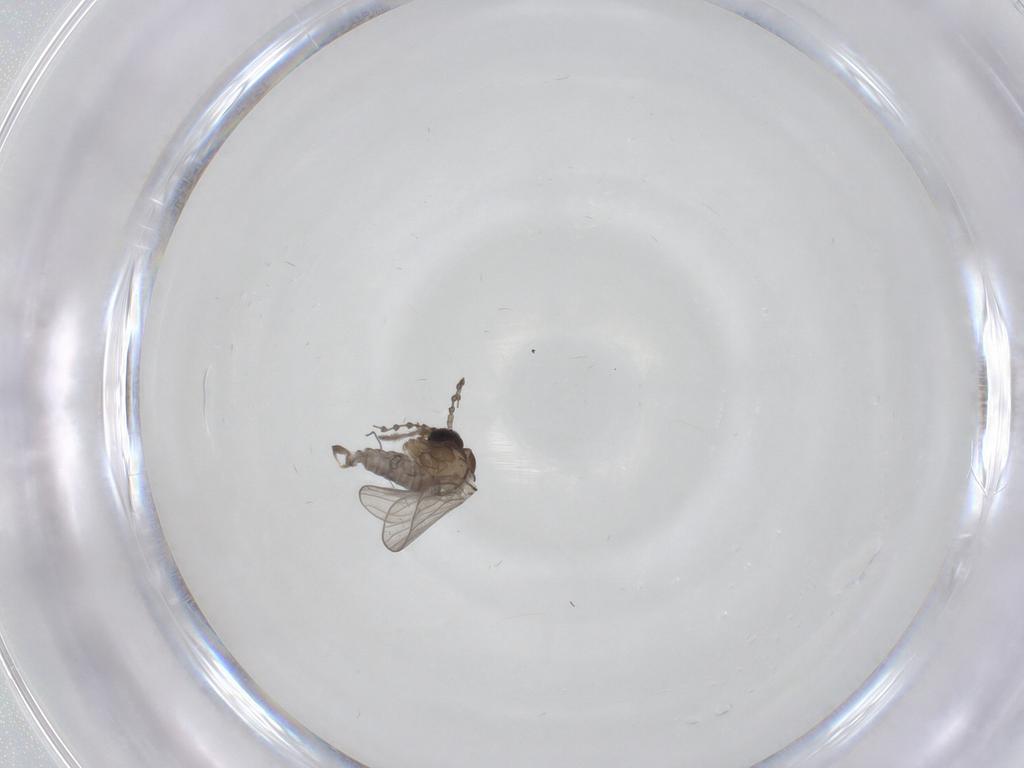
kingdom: Animalia
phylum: Arthropoda
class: Insecta
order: Diptera
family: Psychodidae
